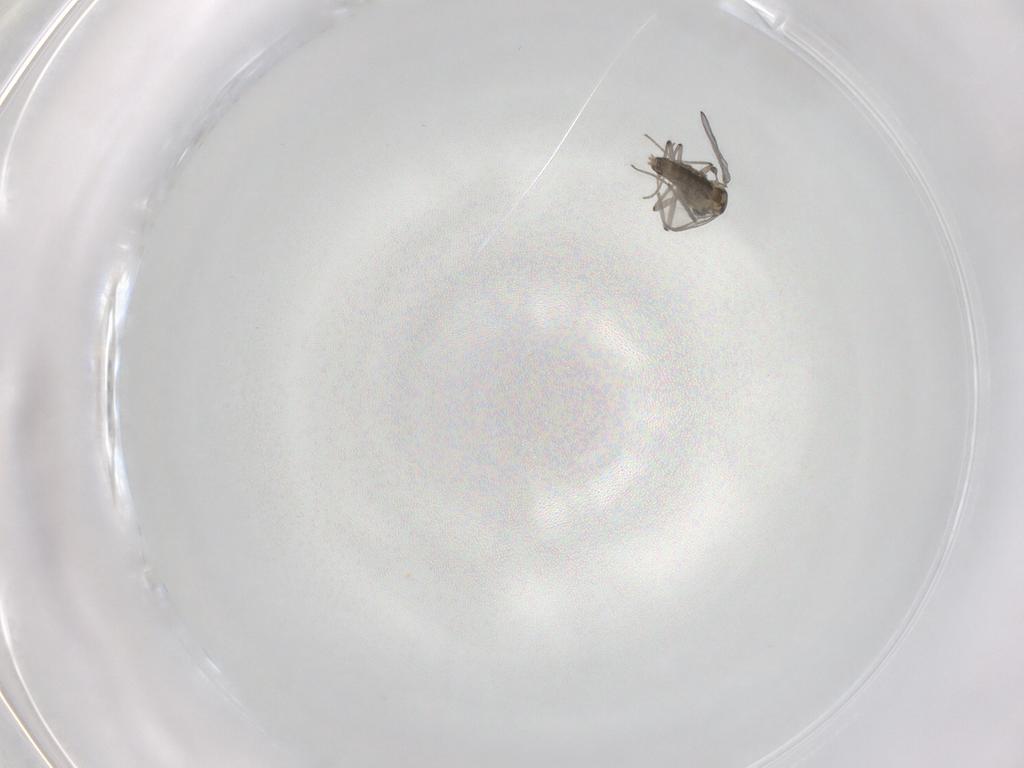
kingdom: Animalia
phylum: Arthropoda
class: Insecta
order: Diptera
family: Chironomidae
